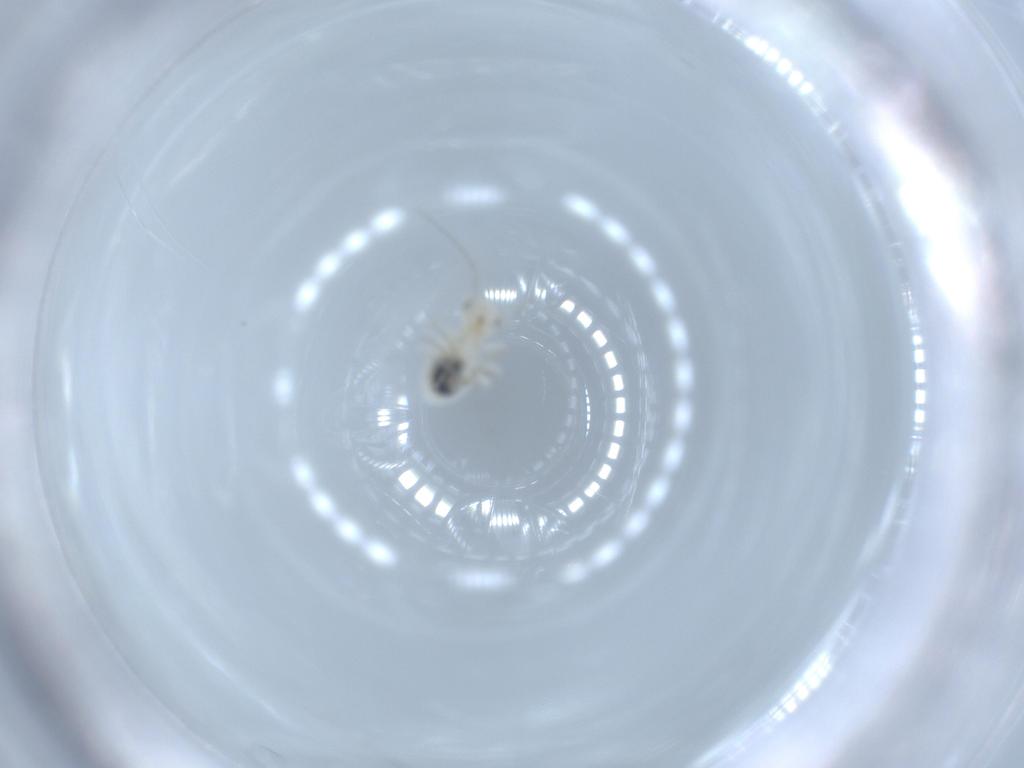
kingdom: Animalia
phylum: Arthropoda
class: Insecta
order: Psocodea
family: Caeciliusidae
